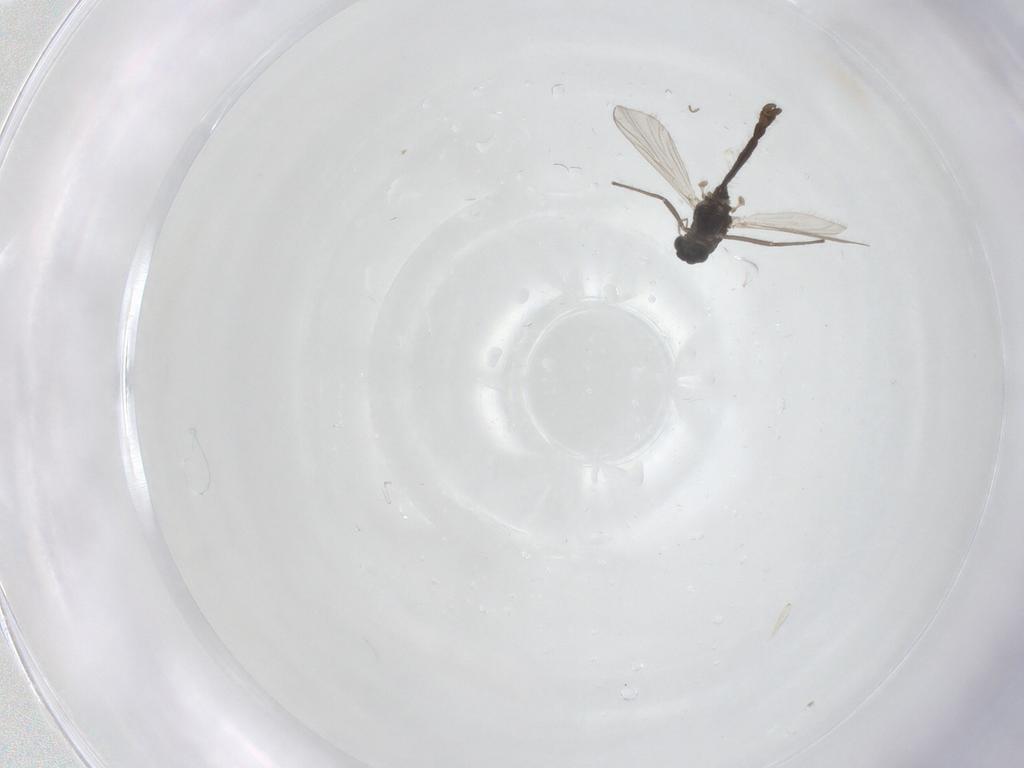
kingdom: Animalia
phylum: Arthropoda
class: Insecta
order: Diptera
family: Chironomidae
